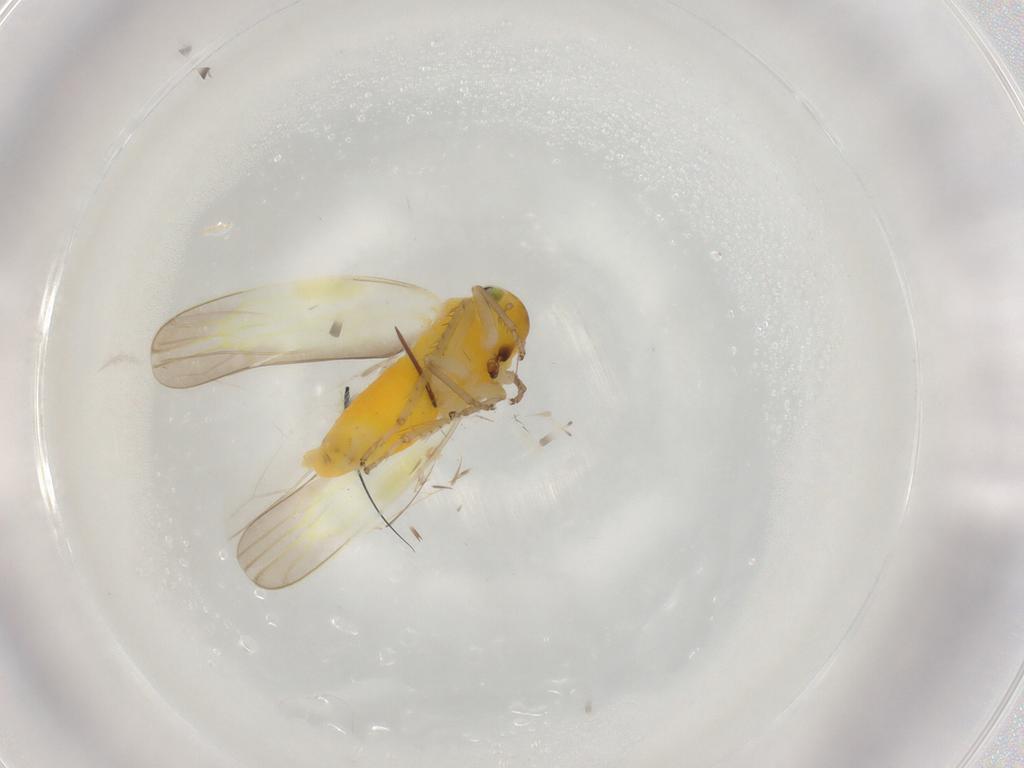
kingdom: Animalia
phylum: Arthropoda
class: Insecta
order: Hemiptera
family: Cicadellidae
